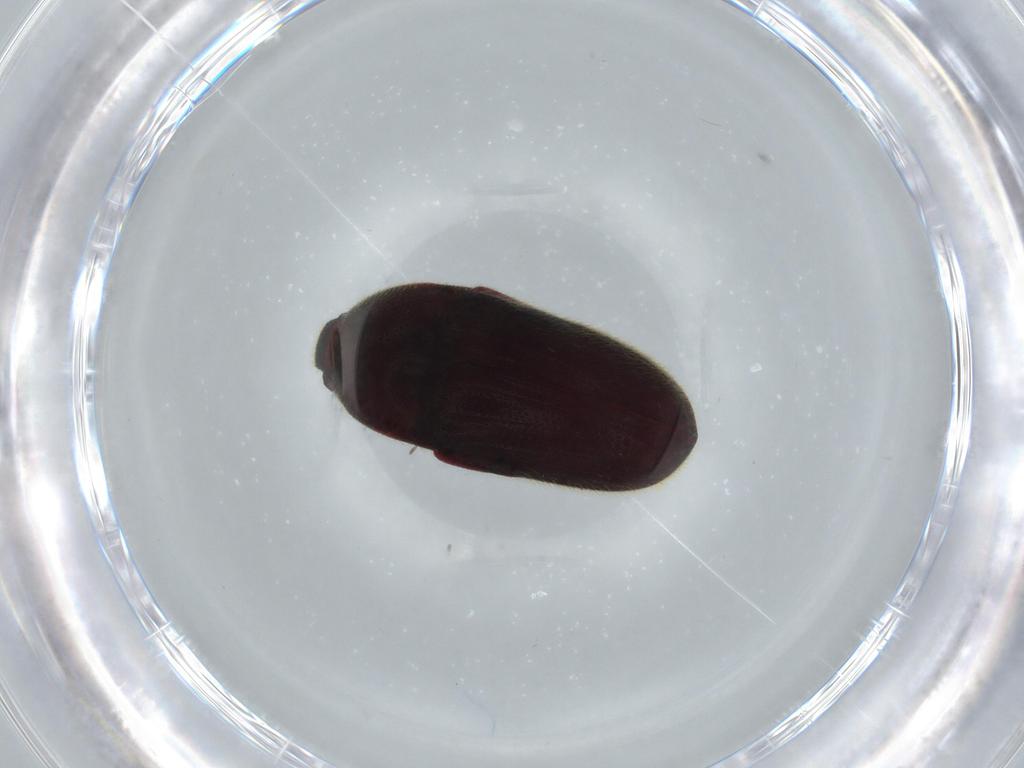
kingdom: Animalia
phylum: Arthropoda
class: Insecta
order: Coleoptera
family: Throscidae
